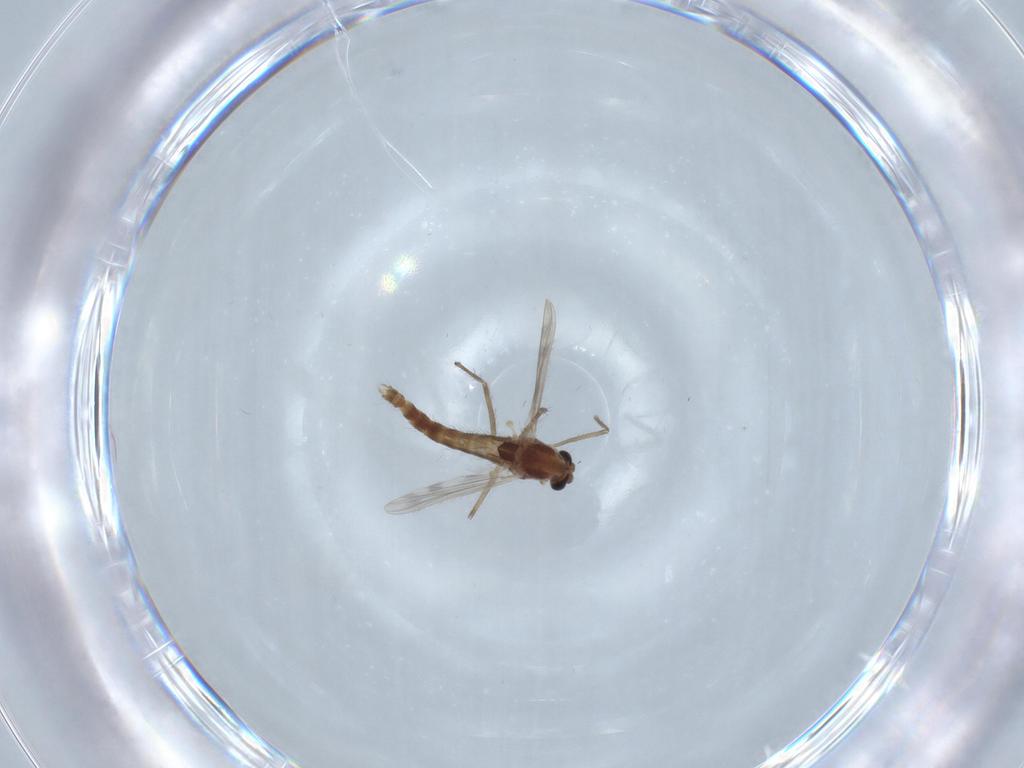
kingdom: Animalia
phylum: Arthropoda
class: Insecta
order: Diptera
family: Chironomidae
